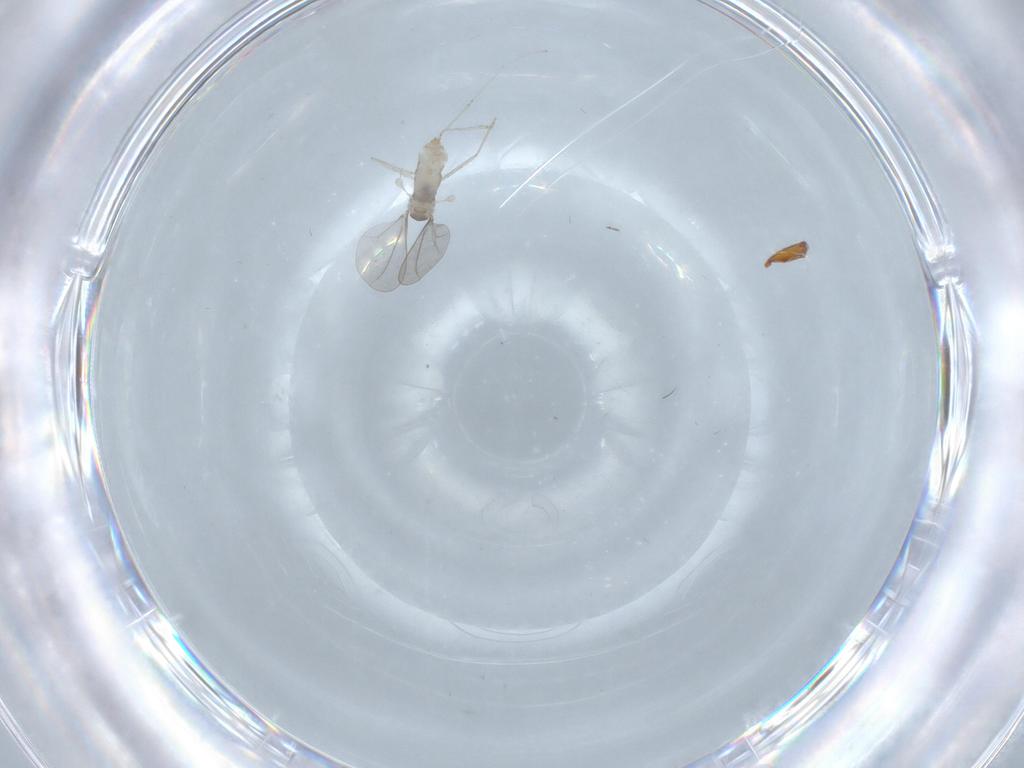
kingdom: Animalia
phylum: Arthropoda
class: Insecta
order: Diptera
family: Cecidomyiidae
